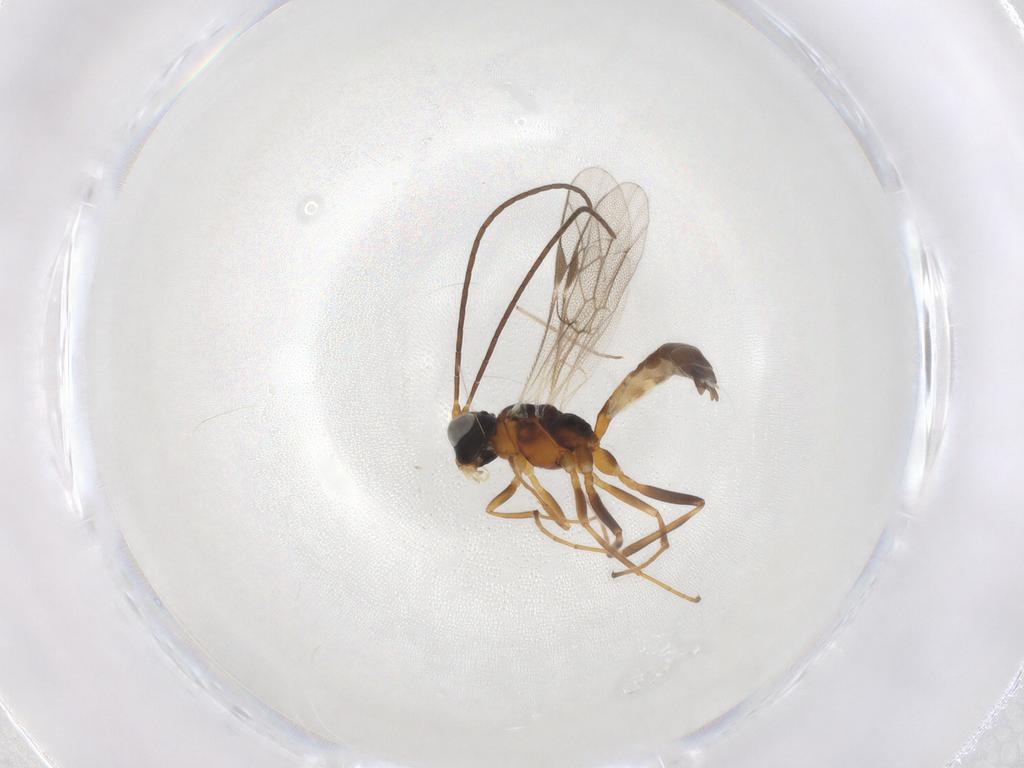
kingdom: Animalia
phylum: Arthropoda
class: Insecta
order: Hymenoptera
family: Ichneumonidae
